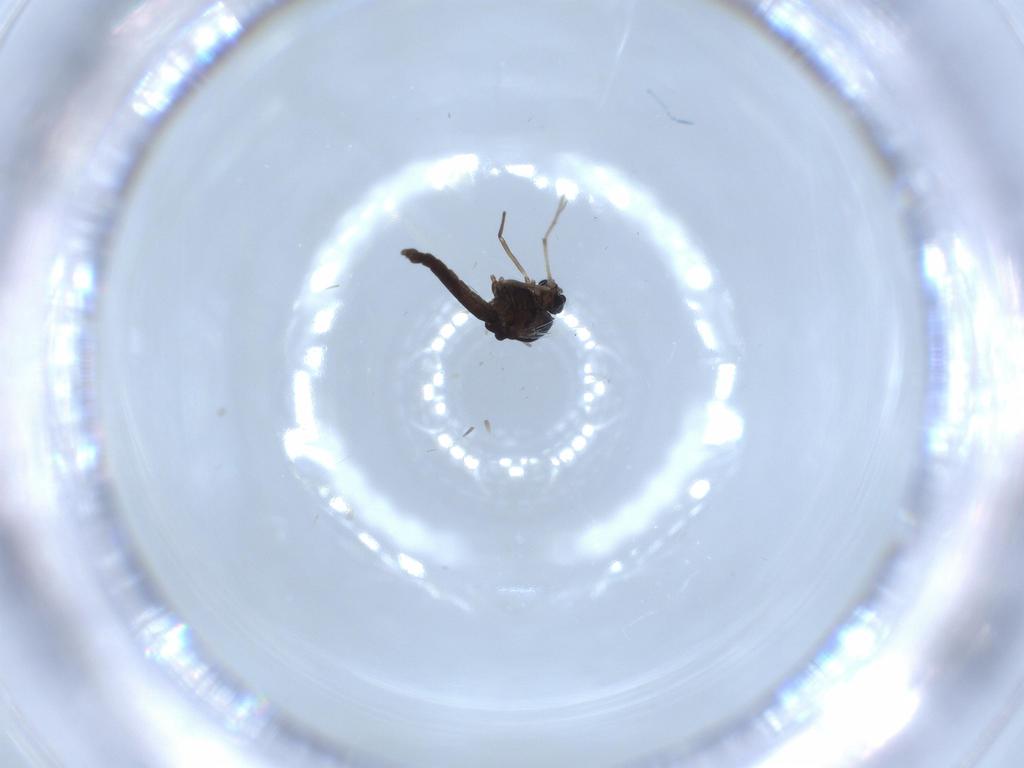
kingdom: Animalia
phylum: Arthropoda
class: Insecta
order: Diptera
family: Chironomidae
